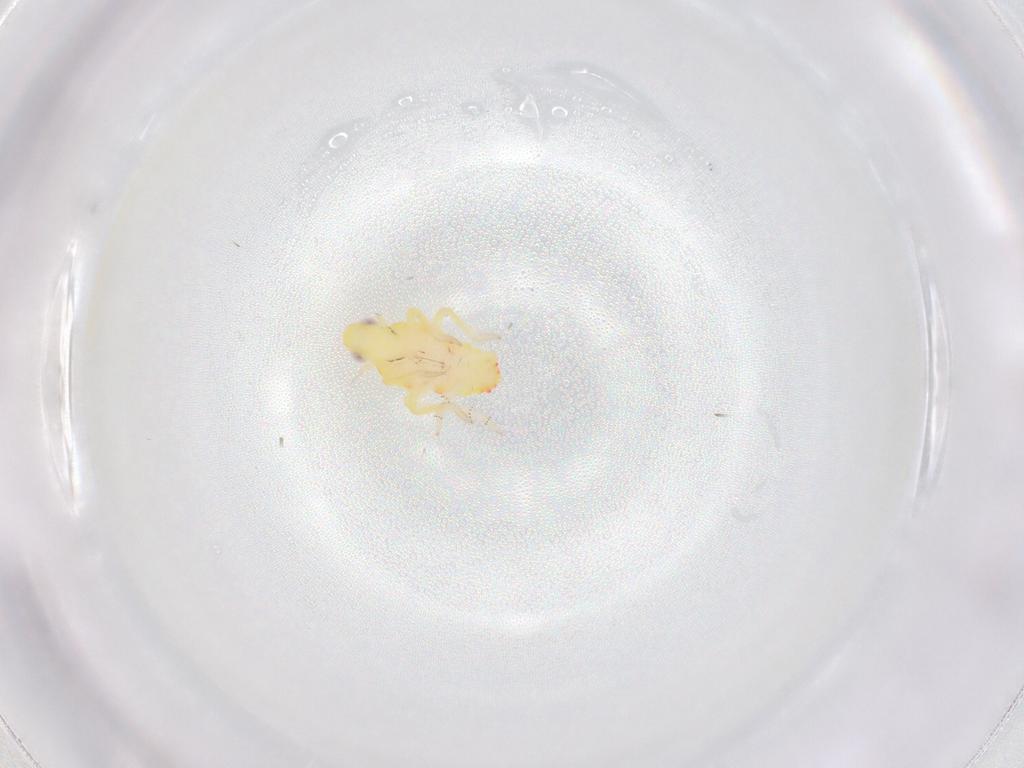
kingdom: Animalia
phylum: Arthropoda
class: Insecta
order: Hemiptera
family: Tropiduchidae
